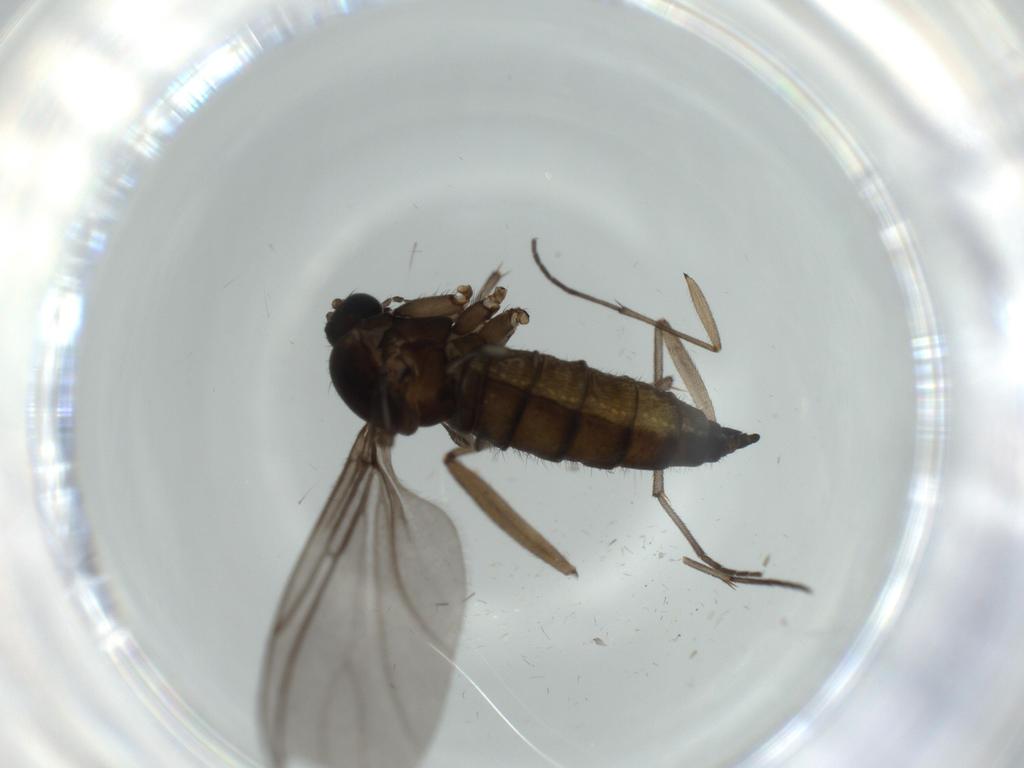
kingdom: Animalia
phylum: Arthropoda
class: Insecta
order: Diptera
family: Sciaridae
